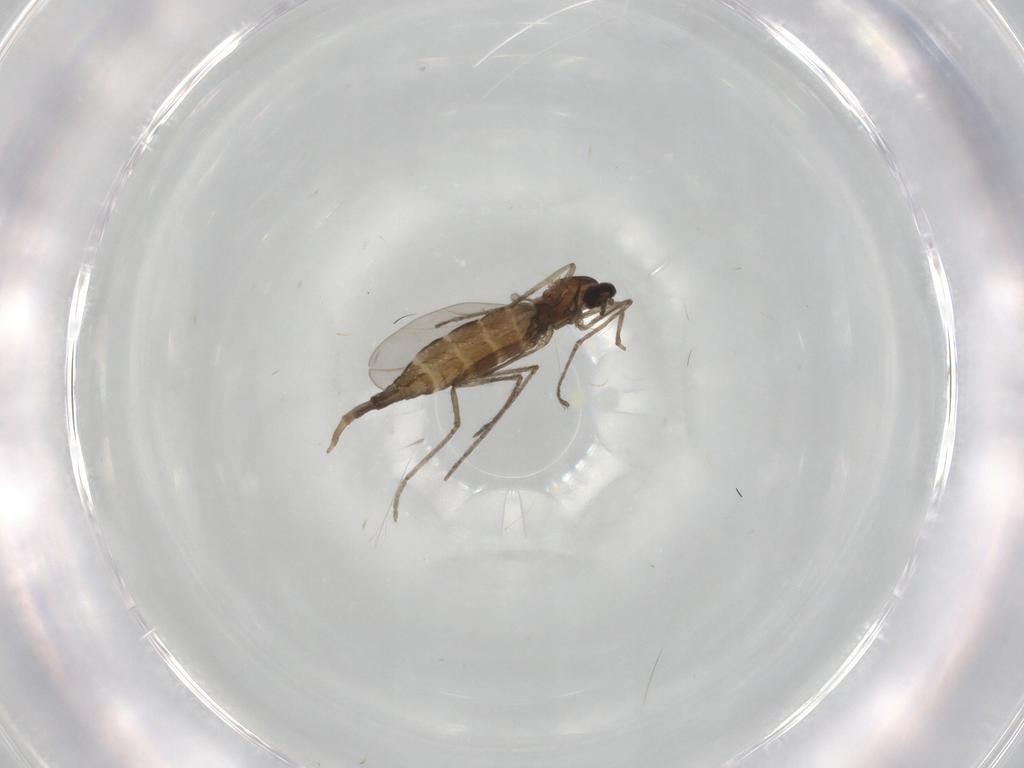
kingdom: Animalia
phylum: Arthropoda
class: Insecta
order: Diptera
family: Cecidomyiidae
